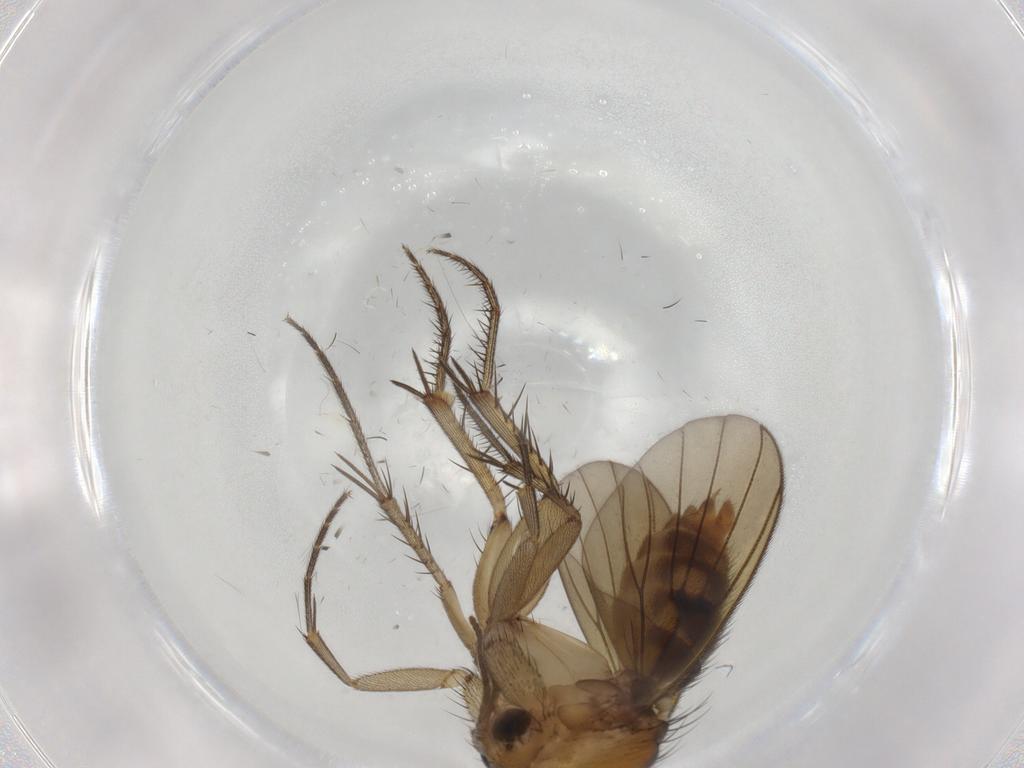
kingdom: Animalia
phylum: Arthropoda
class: Insecta
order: Diptera
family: Mycetophilidae
